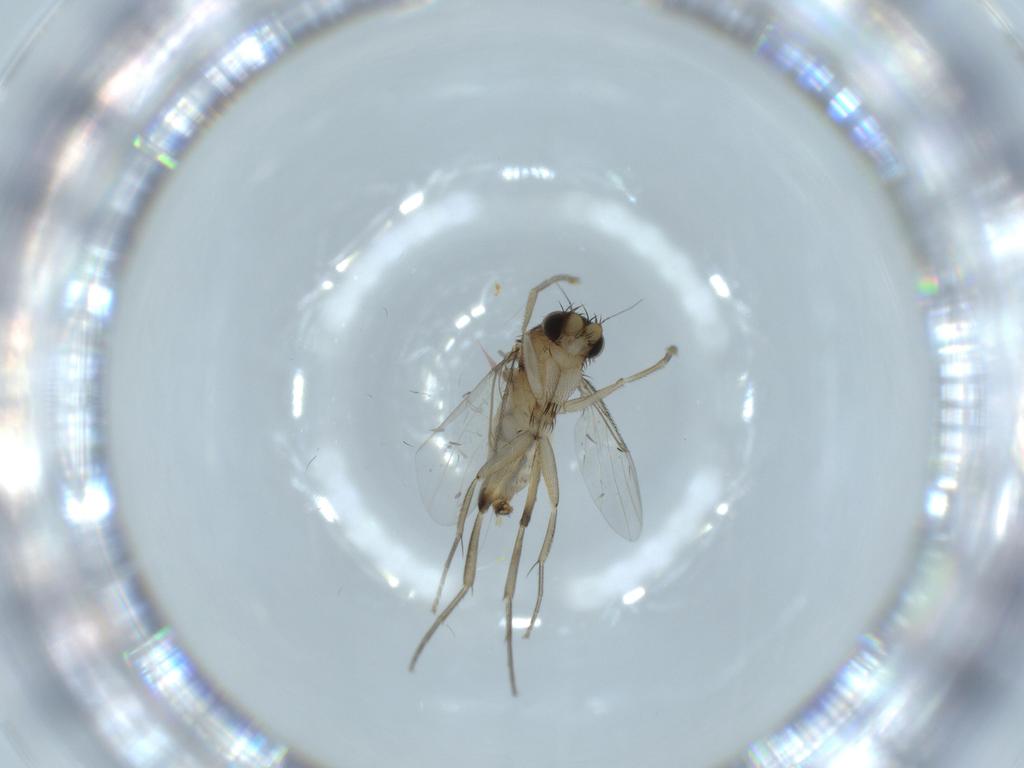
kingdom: Animalia
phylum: Arthropoda
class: Insecta
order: Diptera
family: Phoridae
